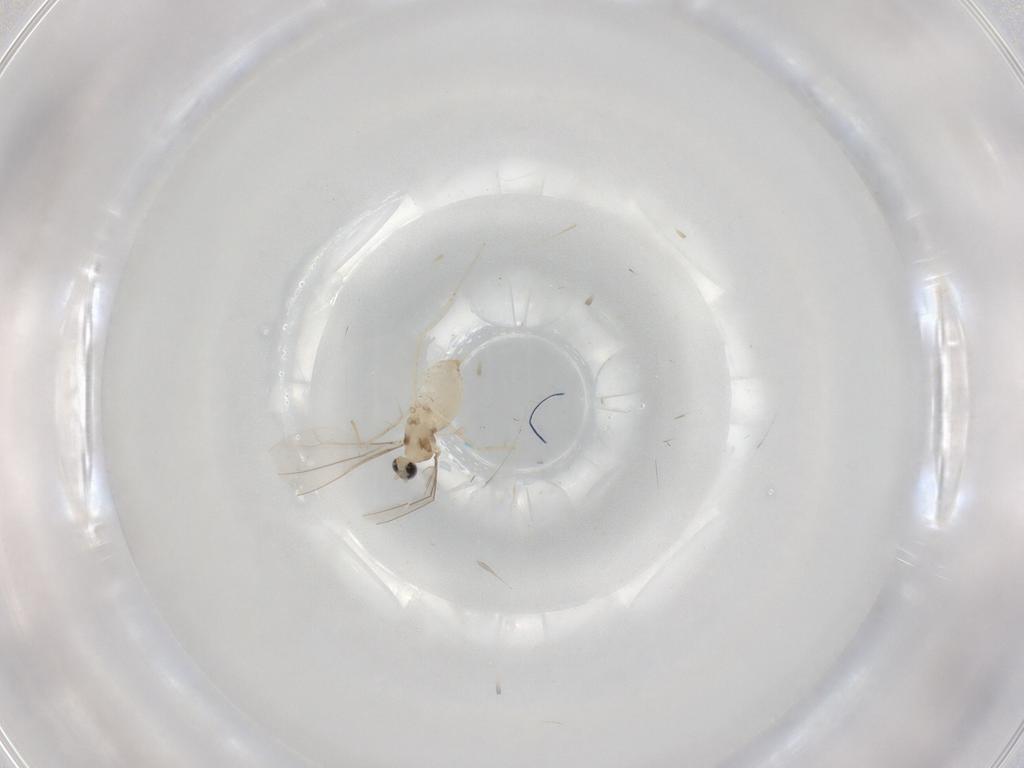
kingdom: Animalia
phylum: Arthropoda
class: Insecta
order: Diptera
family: Cecidomyiidae
